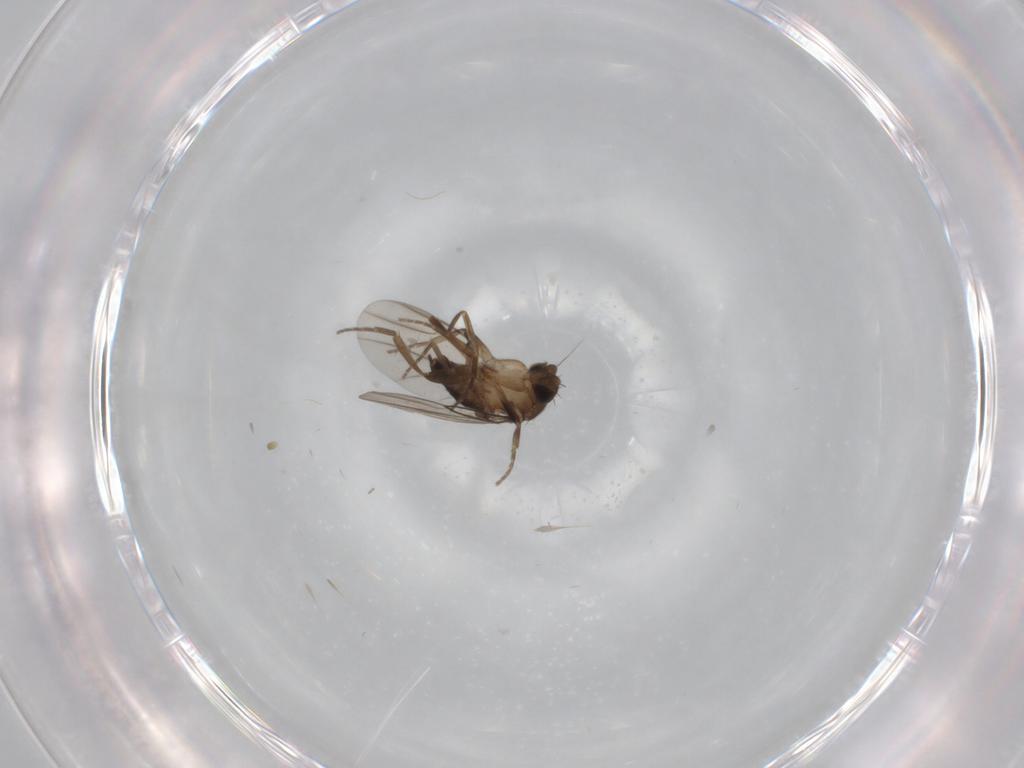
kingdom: Animalia
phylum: Arthropoda
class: Insecta
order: Diptera
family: Phoridae
